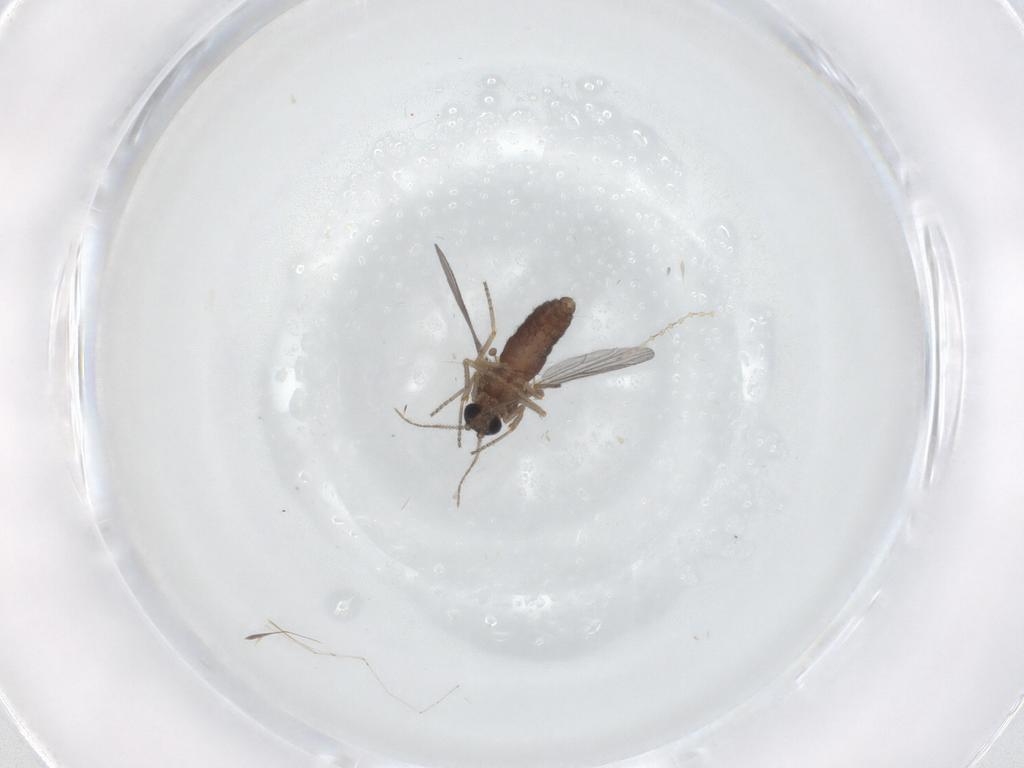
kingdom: Animalia
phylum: Arthropoda
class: Insecta
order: Diptera
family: Ceratopogonidae
